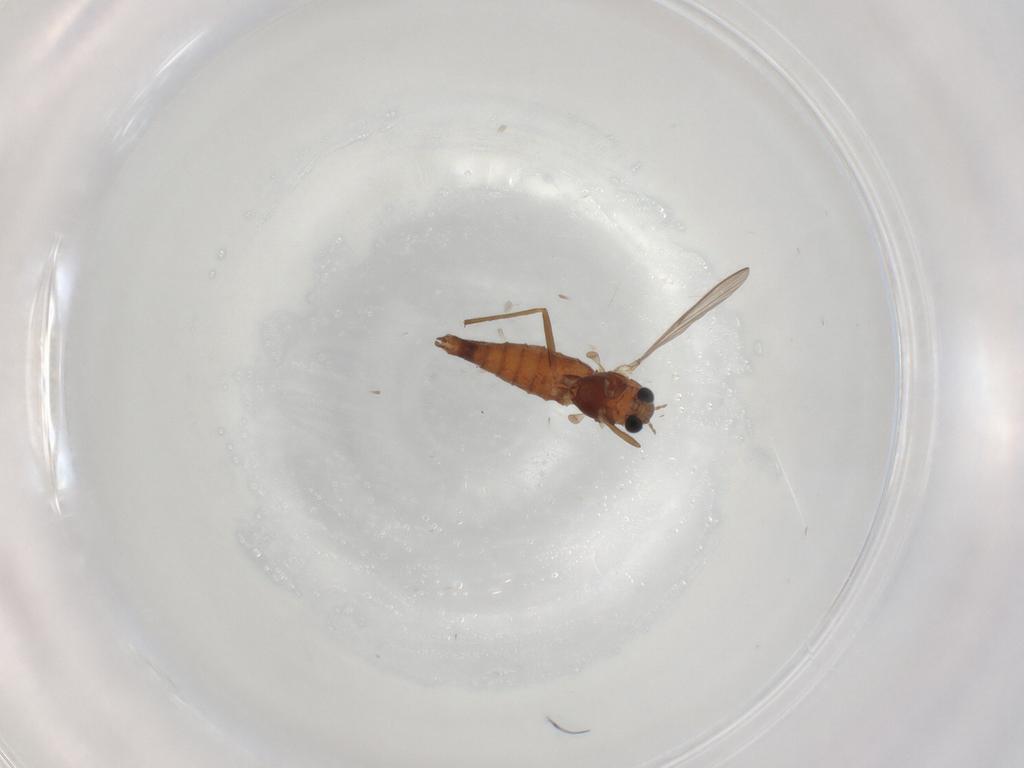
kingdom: Animalia
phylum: Arthropoda
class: Insecta
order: Diptera
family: Chironomidae
